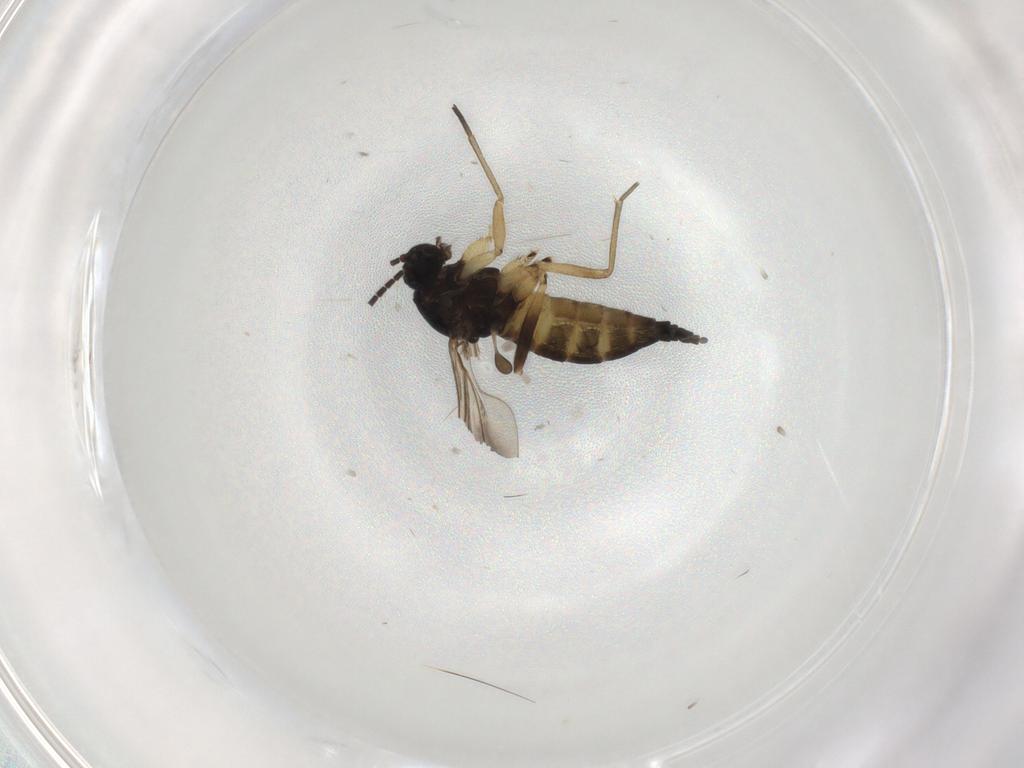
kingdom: Animalia
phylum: Arthropoda
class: Insecta
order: Diptera
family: Sciaridae
